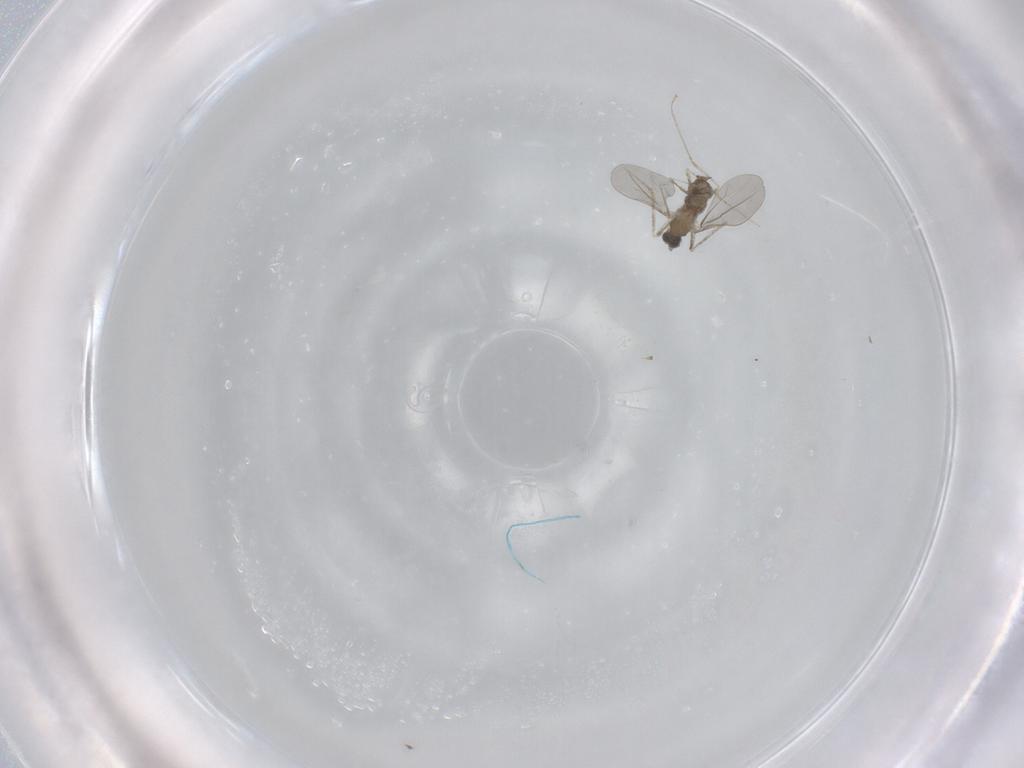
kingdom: Animalia
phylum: Arthropoda
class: Insecta
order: Diptera
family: Cecidomyiidae
